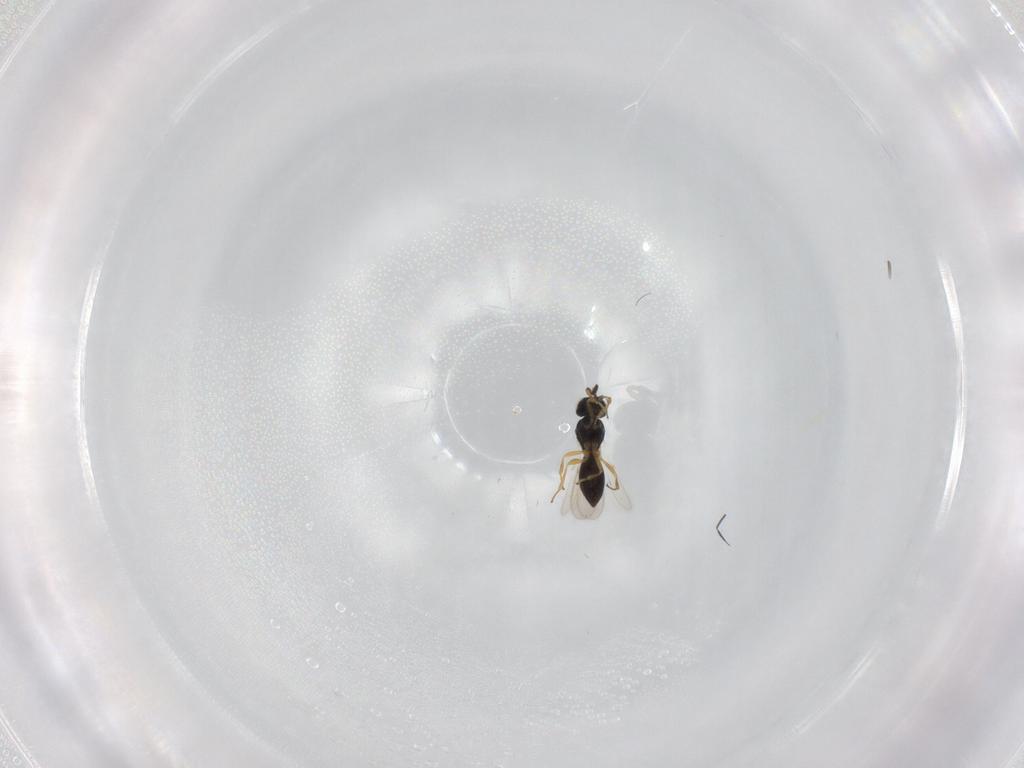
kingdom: Animalia
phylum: Arthropoda
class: Insecta
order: Hymenoptera
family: Scelionidae
